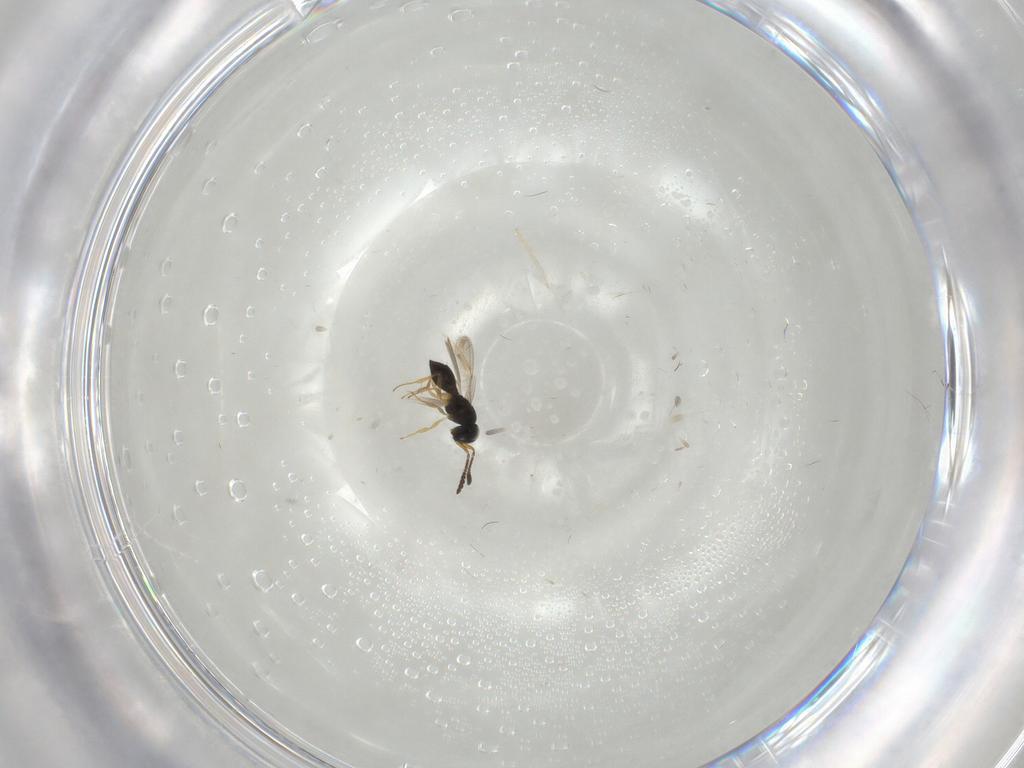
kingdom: Animalia
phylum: Arthropoda
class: Insecta
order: Hymenoptera
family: Scelionidae
